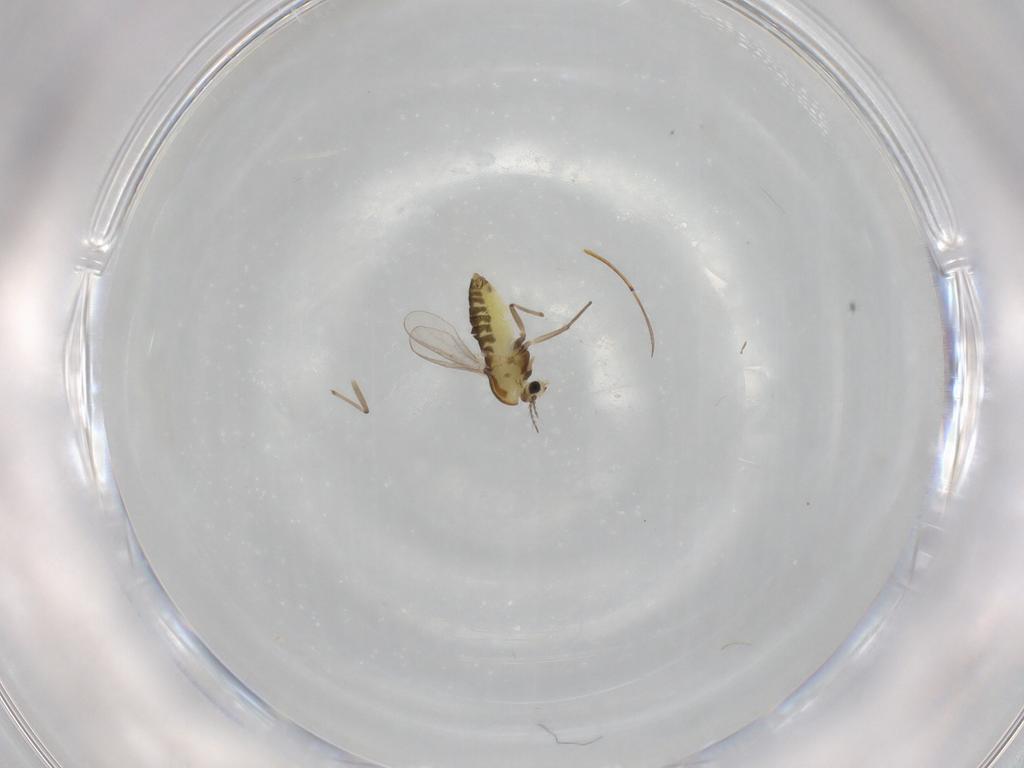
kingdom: Animalia
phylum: Arthropoda
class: Insecta
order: Diptera
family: Chironomidae
